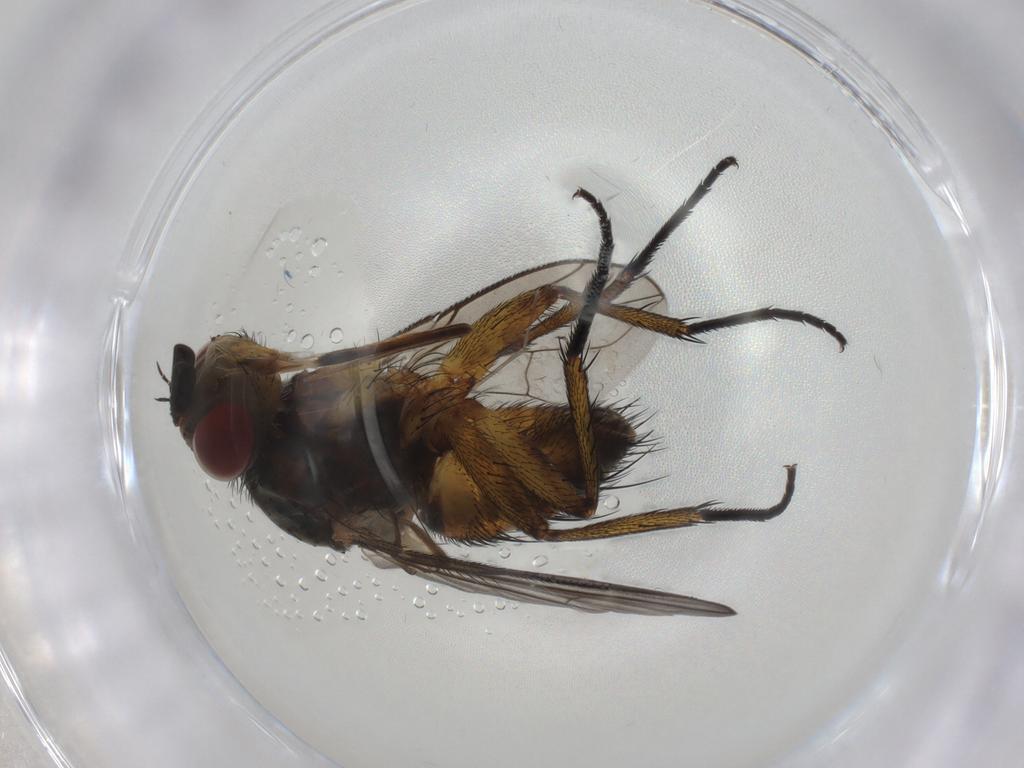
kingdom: Animalia
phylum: Arthropoda
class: Insecta
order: Diptera
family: Tachinidae
